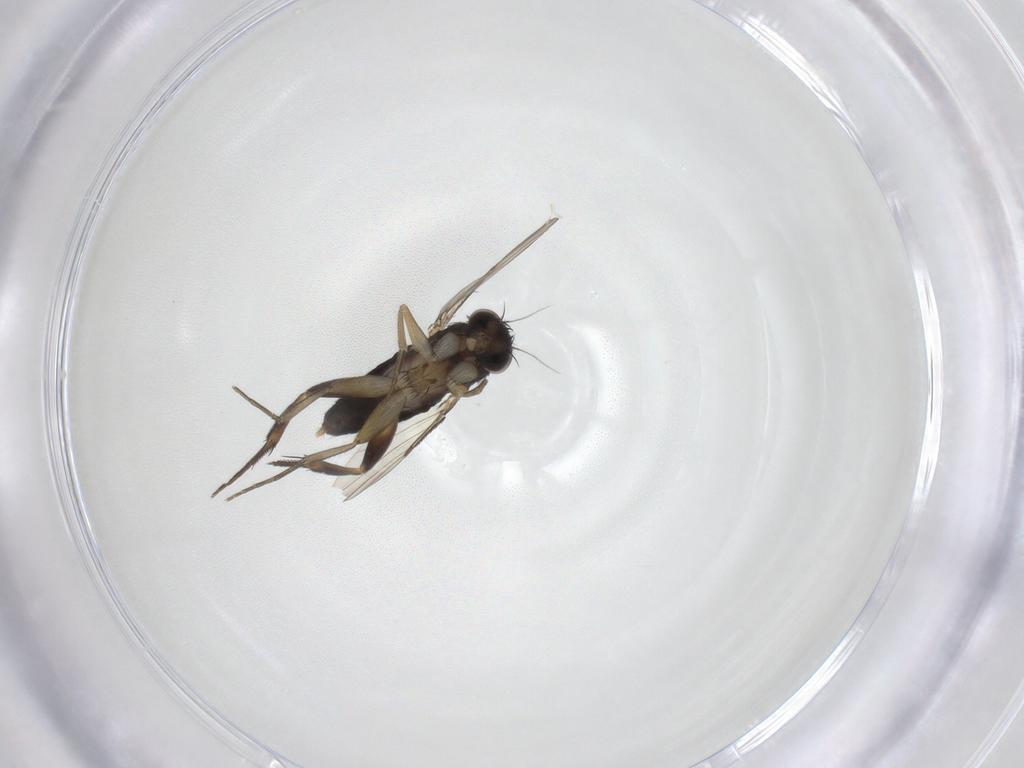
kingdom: Animalia
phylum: Arthropoda
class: Insecta
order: Diptera
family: Phoridae
